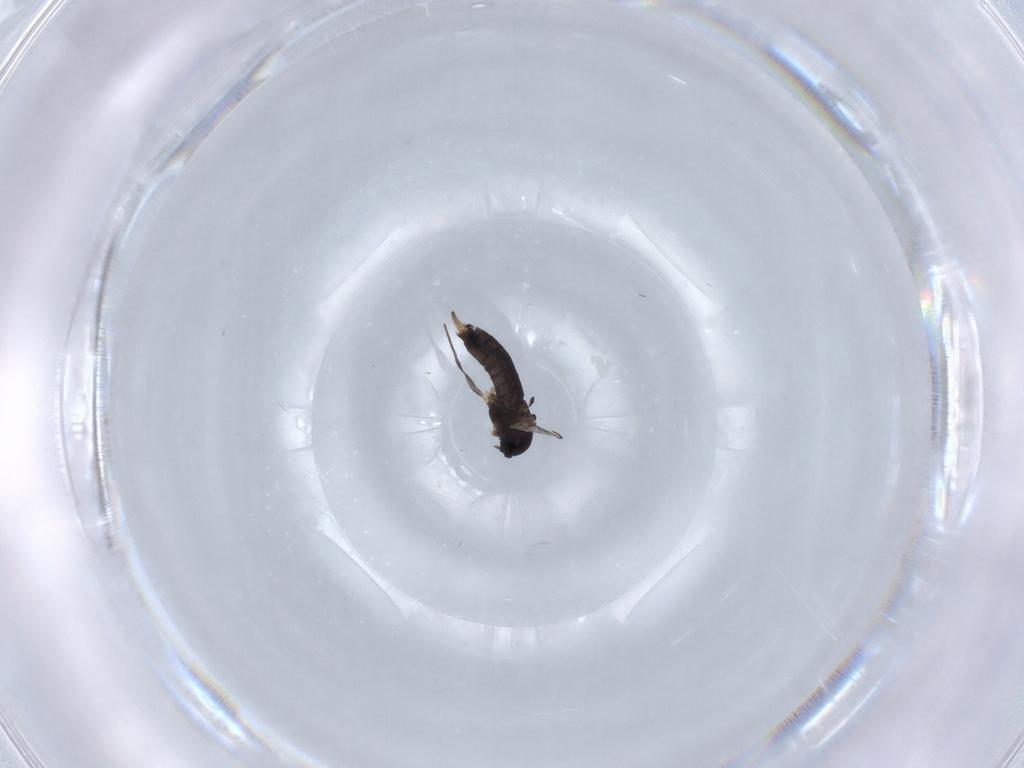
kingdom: Animalia
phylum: Arthropoda
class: Insecta
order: Diptera
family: Chironomidae
